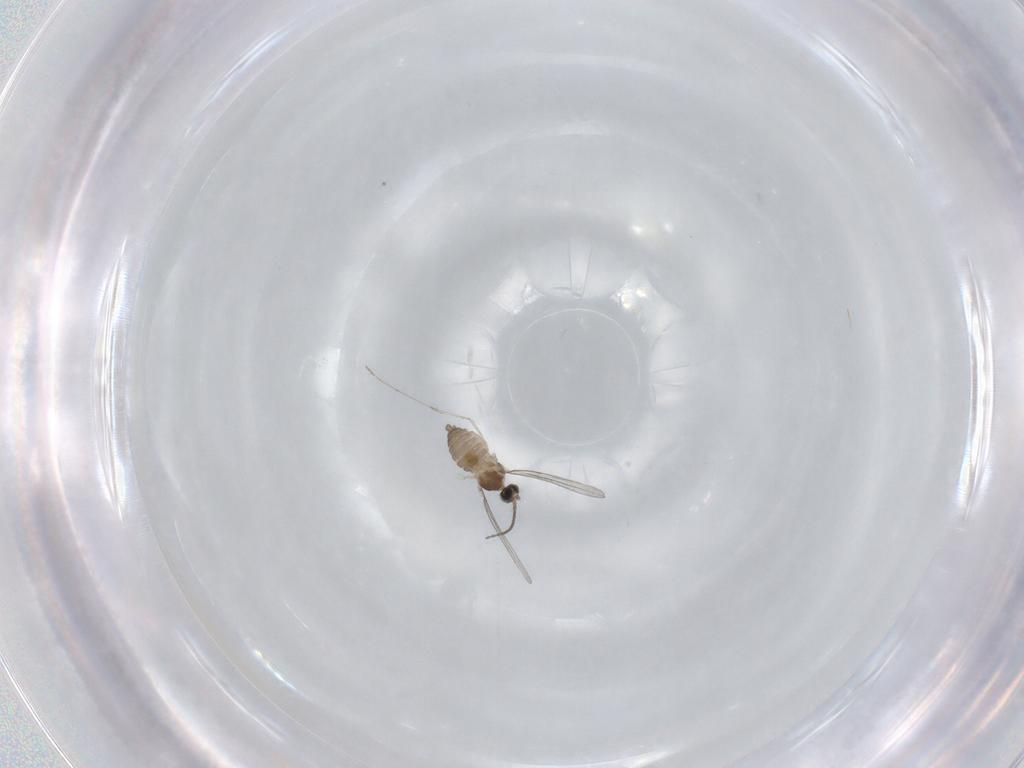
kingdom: Animalia
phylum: Arthropoda
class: Insecta
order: Diptera
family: Cecidomyiidae
